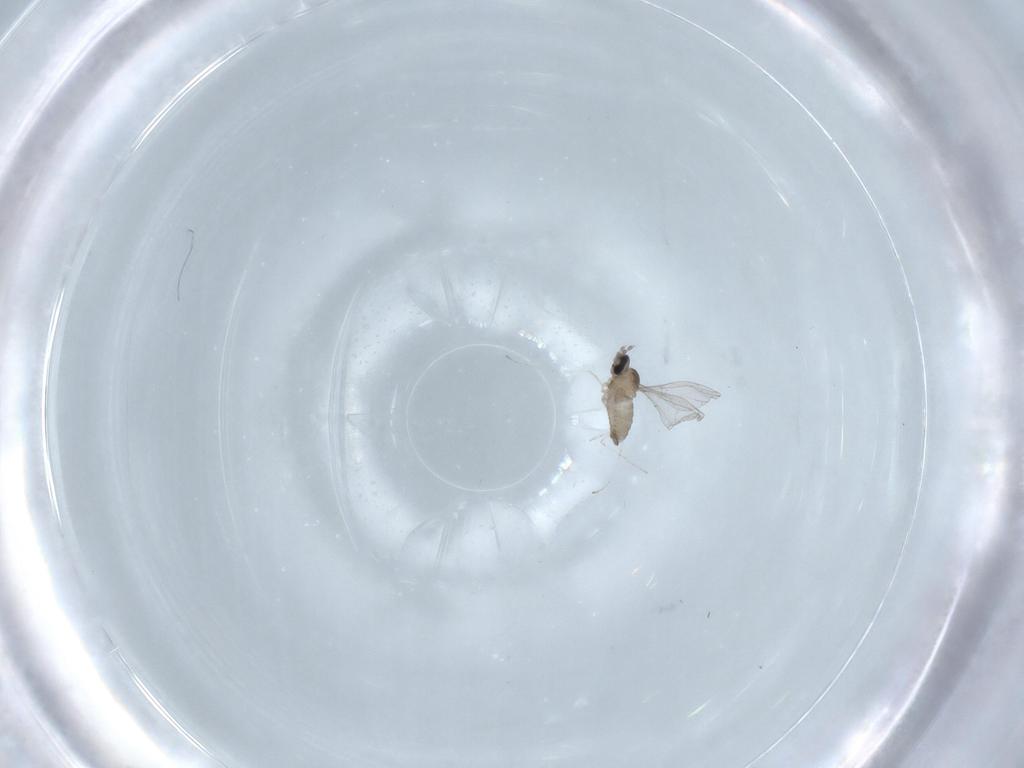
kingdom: Animalia
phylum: Arthropoda
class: Insecta
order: Diptera
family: Cecidomyiidae
